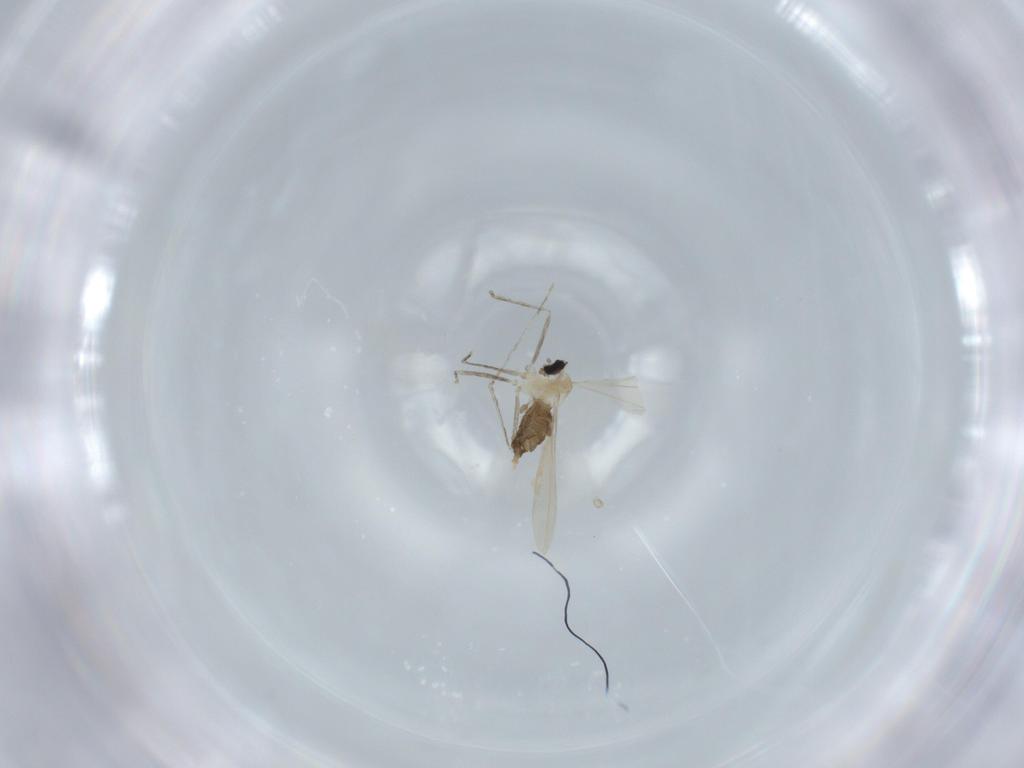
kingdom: Animalia
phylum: Arthropoda
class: Insecta
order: Diptera
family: Cecidomyiidae
